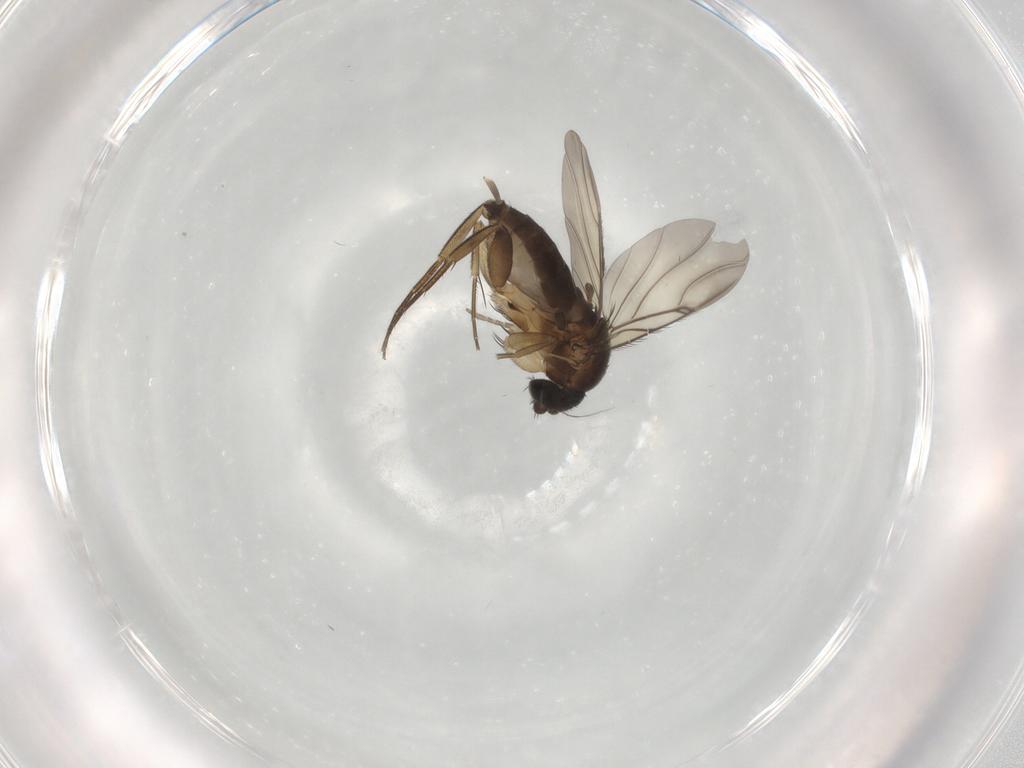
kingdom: Animalia
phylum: Arthropoda
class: Insecta
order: Diptera
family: Phoridae
